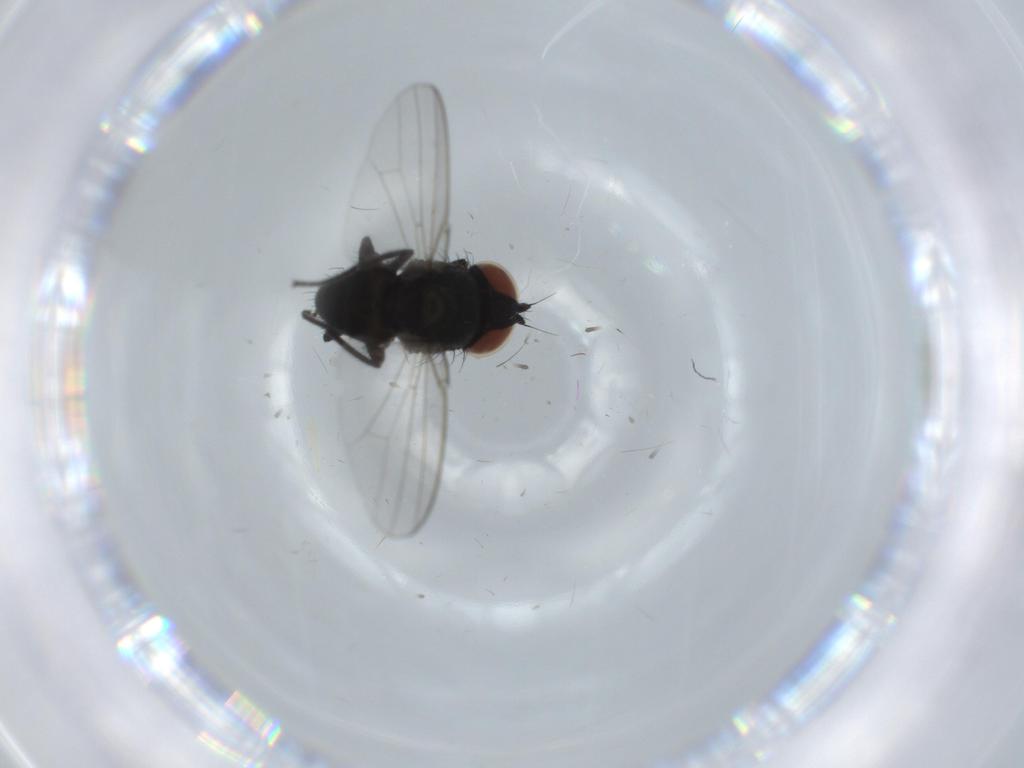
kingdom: Animalia
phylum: Arthropoda
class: Insecta
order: Diptera
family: Milichiidae
